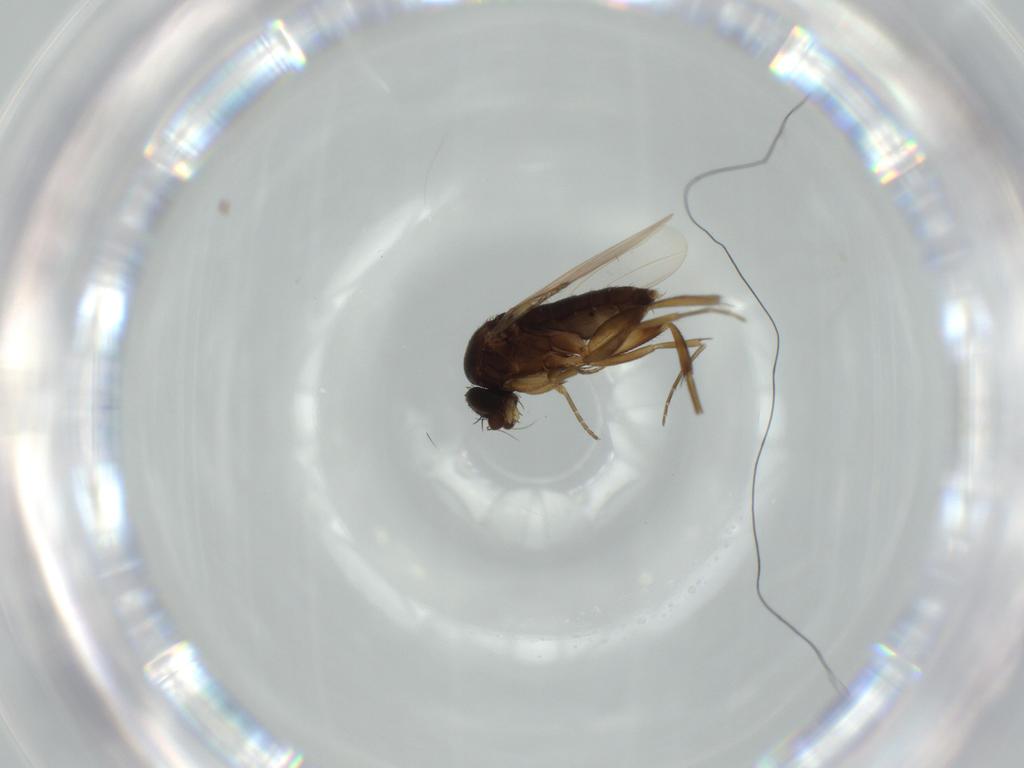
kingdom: Animalia
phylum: Arthropoda
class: Insecta
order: Diptera
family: Phoridae
